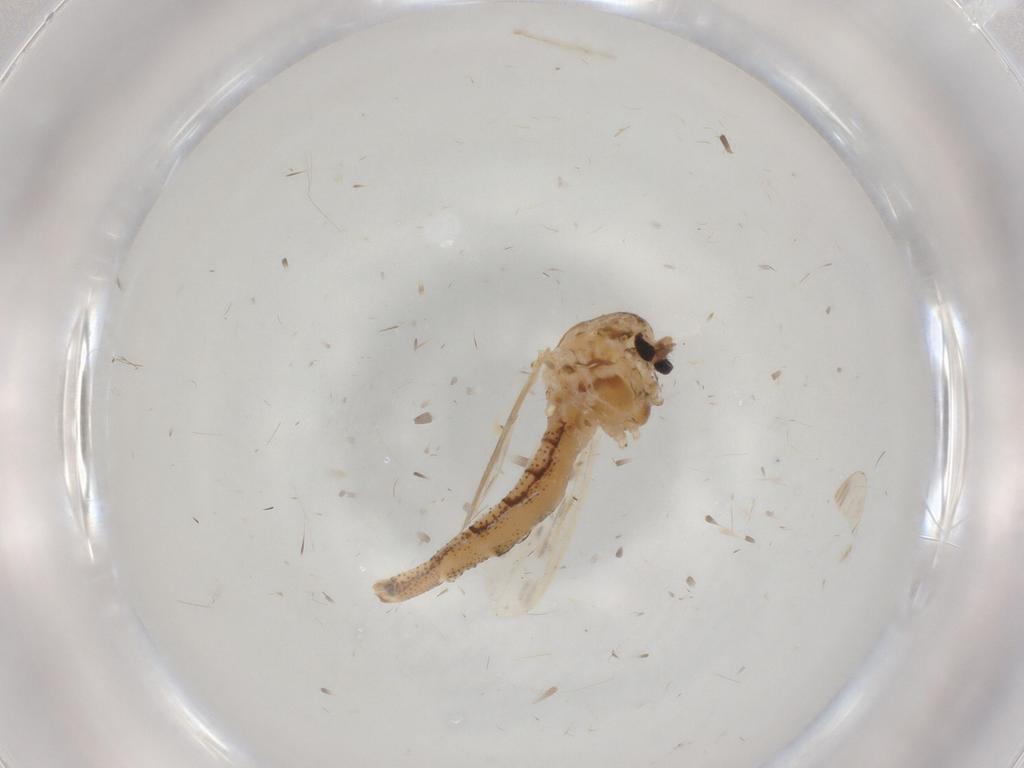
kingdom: Animalia
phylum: Arthropoda
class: Insecta
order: Diptera
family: Chaoboridae
